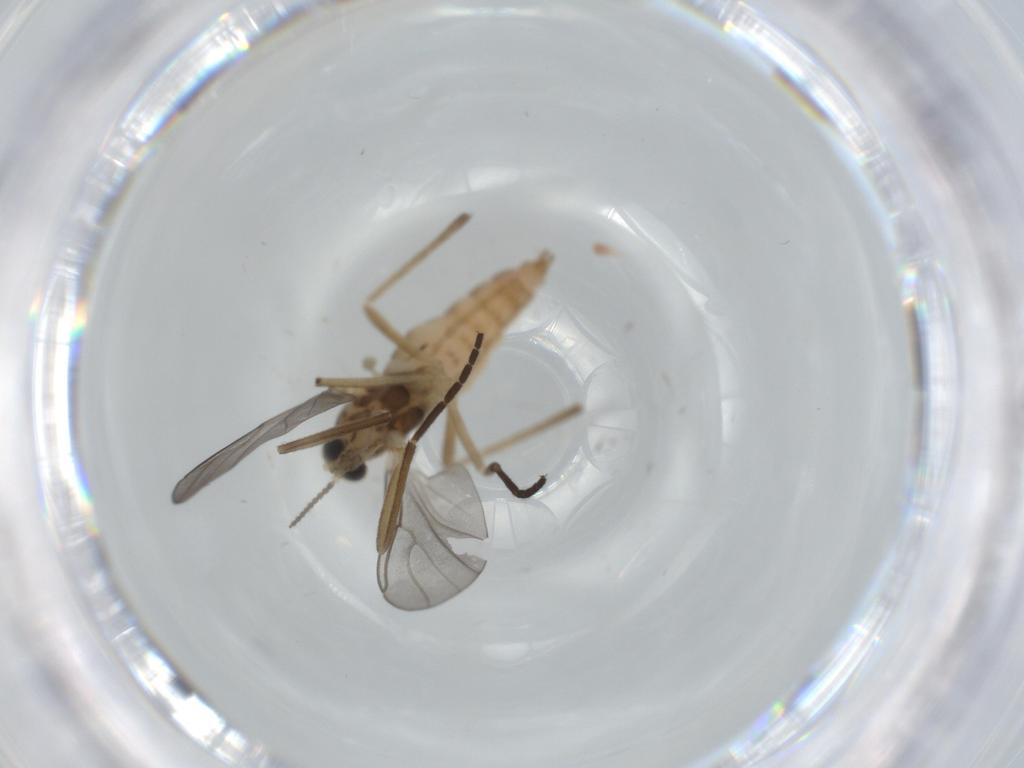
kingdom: Animalia
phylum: Arthropoda
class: Insecta
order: Diptera
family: Cecidomyiidae
